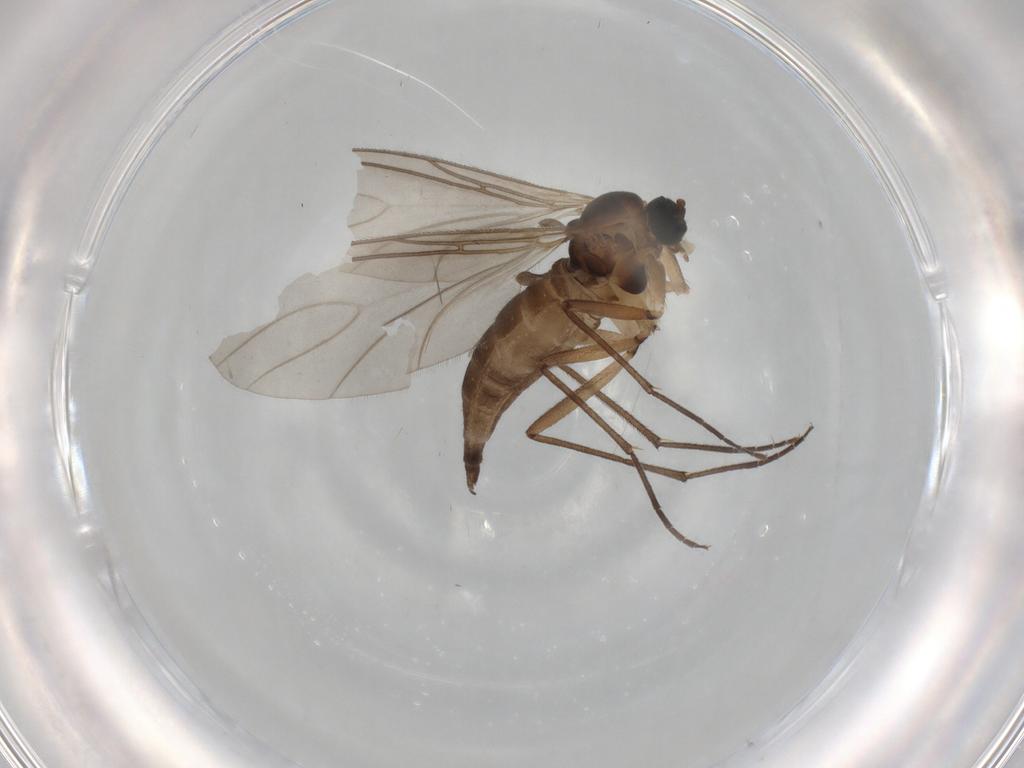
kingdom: Animalia
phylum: Arthropoda
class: Insecta
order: Diptera
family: Sciaridae
